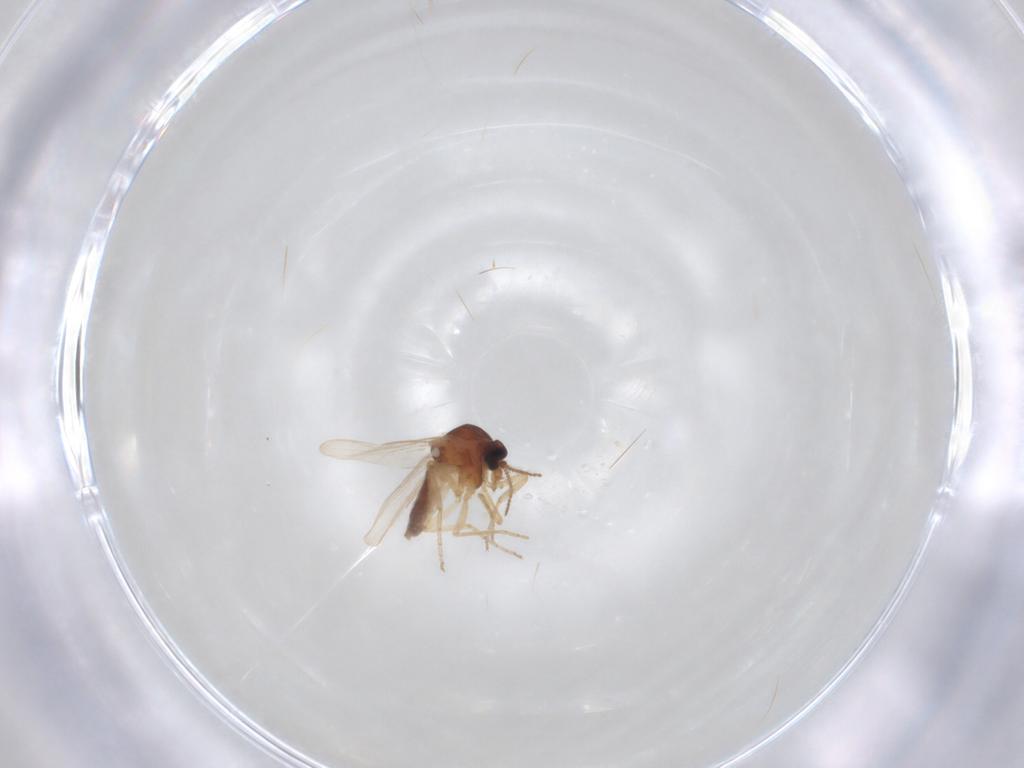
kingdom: Animalia
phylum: Arthropoda
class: Insecta
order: Diptera
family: Ceratopogonidae
